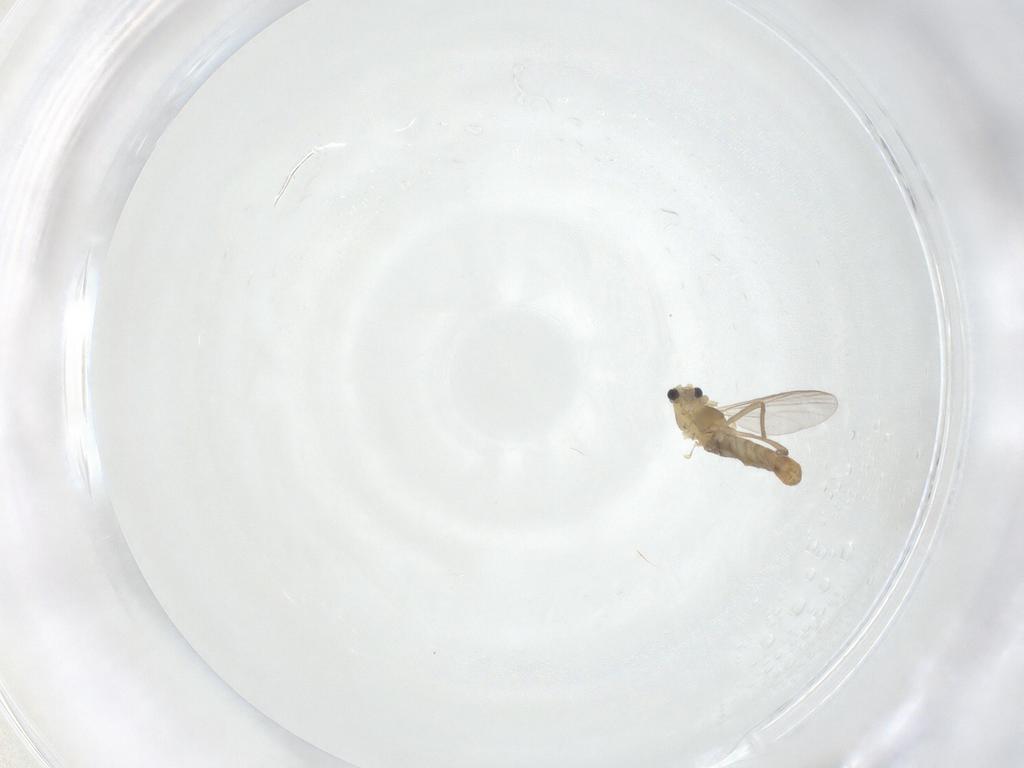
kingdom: Animalia
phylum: Arthropoda
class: Insecta
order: Diptera
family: Chironomidae
